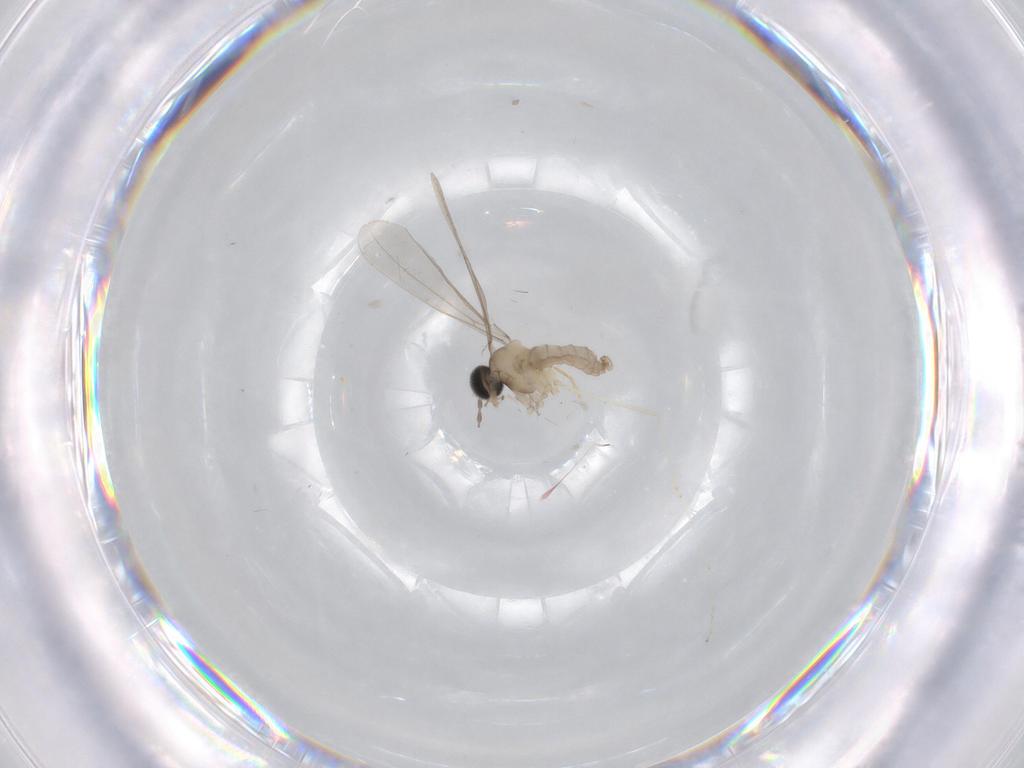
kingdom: Animalia
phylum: Arthropoda
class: Insecta
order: Diptera
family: Cecidomyiidae
